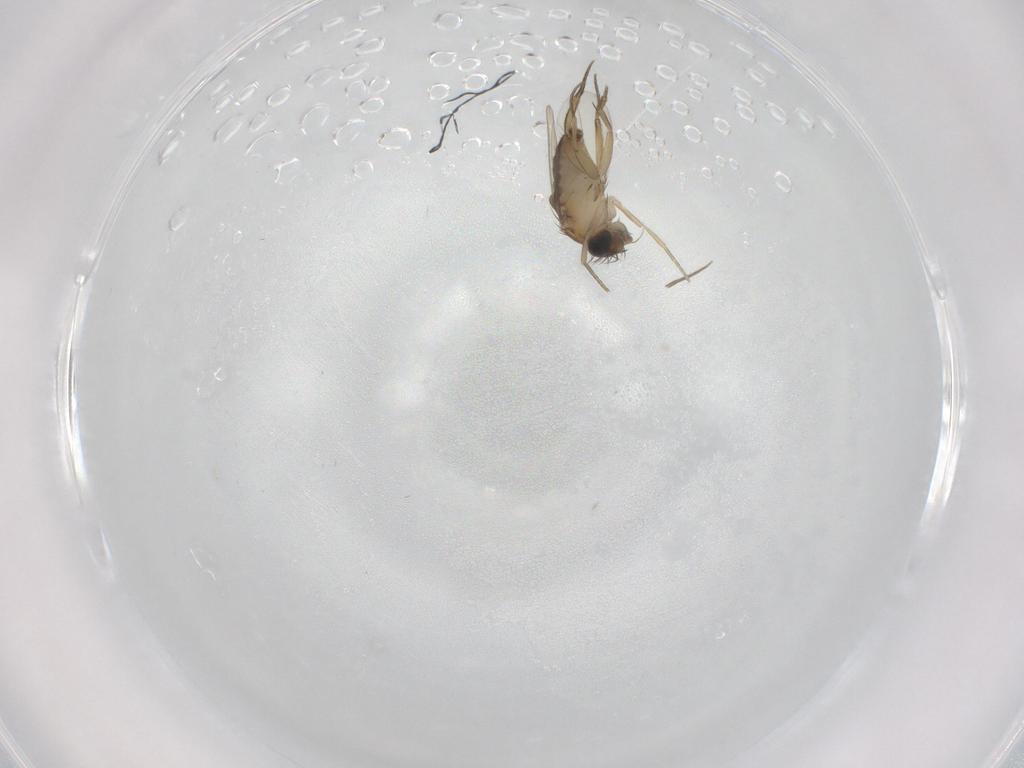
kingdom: Animalia
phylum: Arthropoda
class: Insecta
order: Diptera
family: Phoridae
